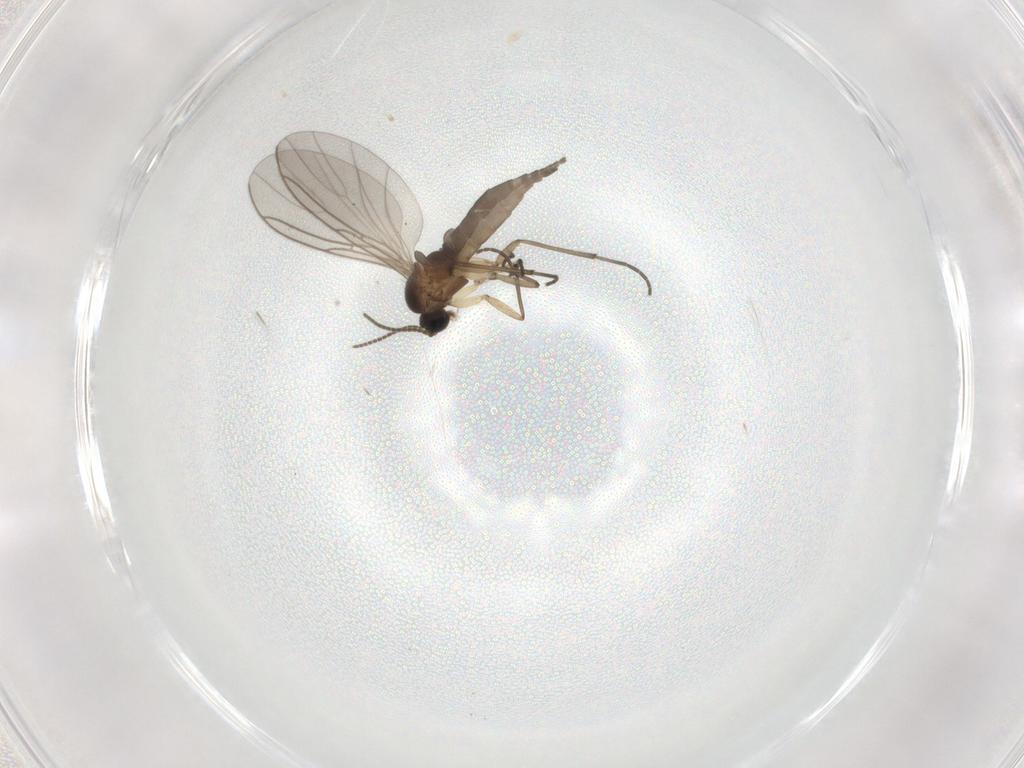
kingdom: Animalia
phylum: Arthropoda
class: Insecta
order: Diptera
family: Sciaridae
